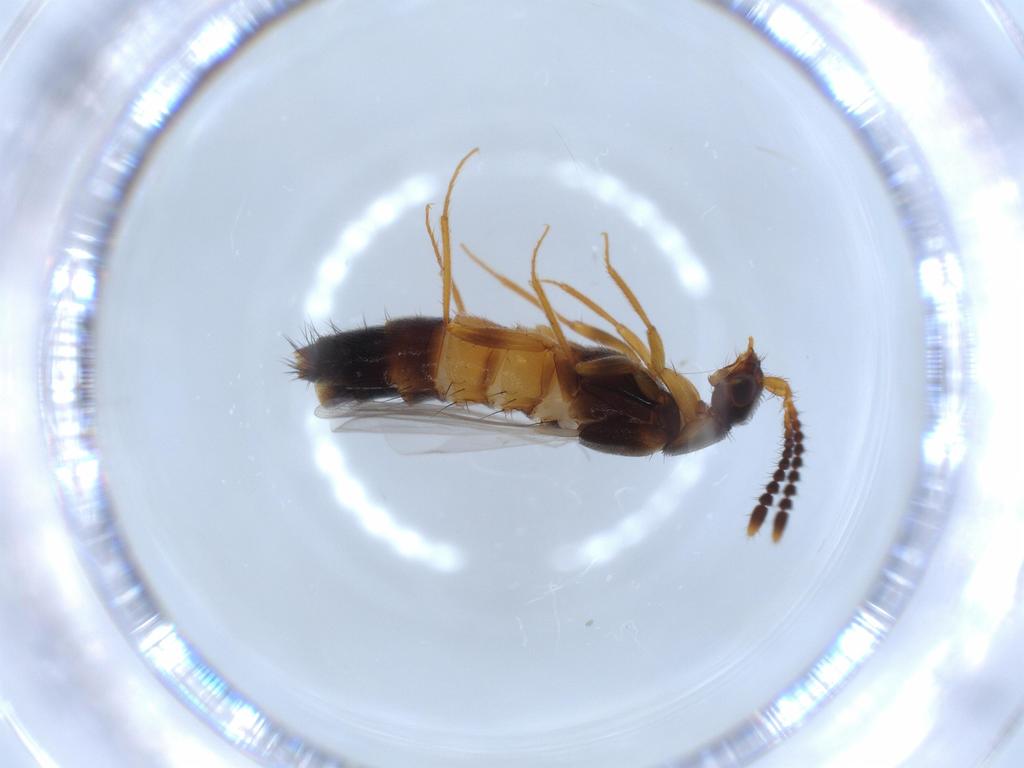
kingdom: Animalia
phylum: Arthropoda
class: Insecta
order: Coleoptera
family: Staphylinidae
